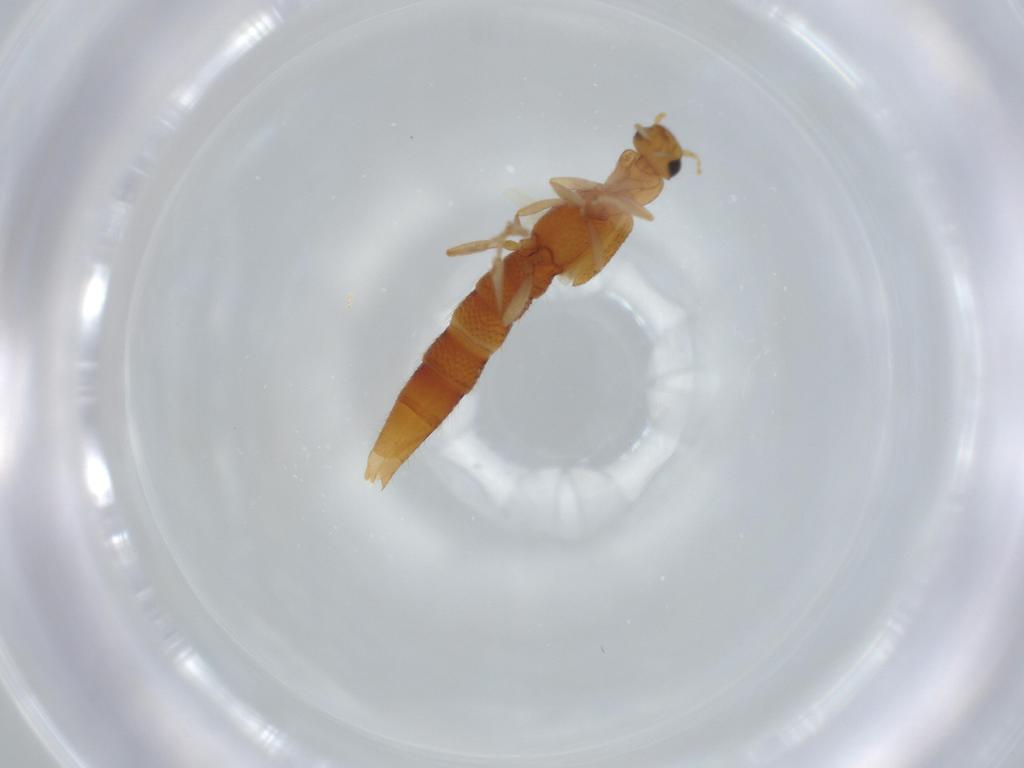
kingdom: Animalia
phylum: Arthropoda
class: Insecta
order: Coleoptera
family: Staphylinidae
